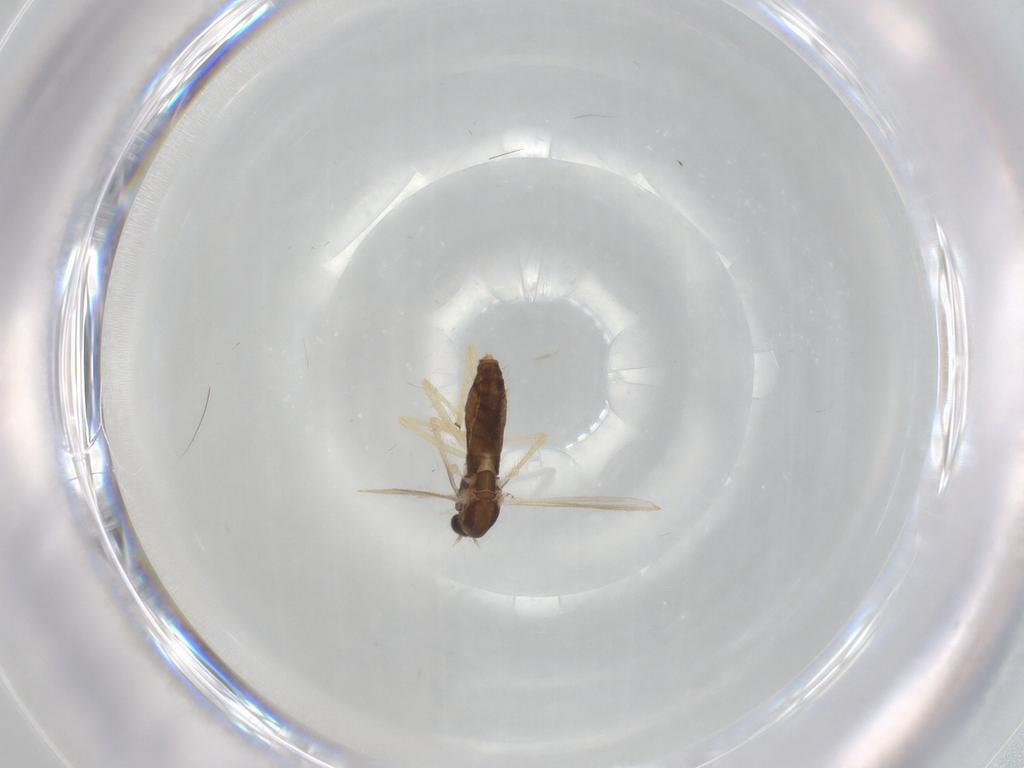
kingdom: Animalia
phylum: Arthropoda
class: Insecta
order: Diptera
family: Chironomidae
